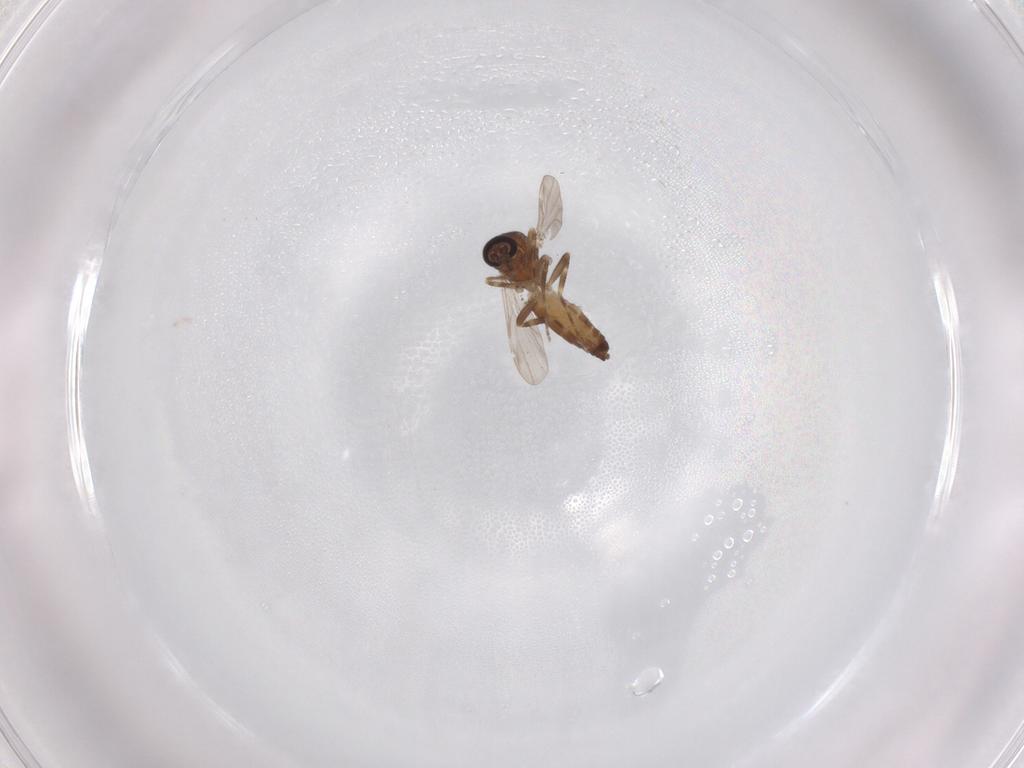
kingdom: Animalia
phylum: Arthropoda
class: Insecta
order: Diptera
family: Ceratopogonidae
